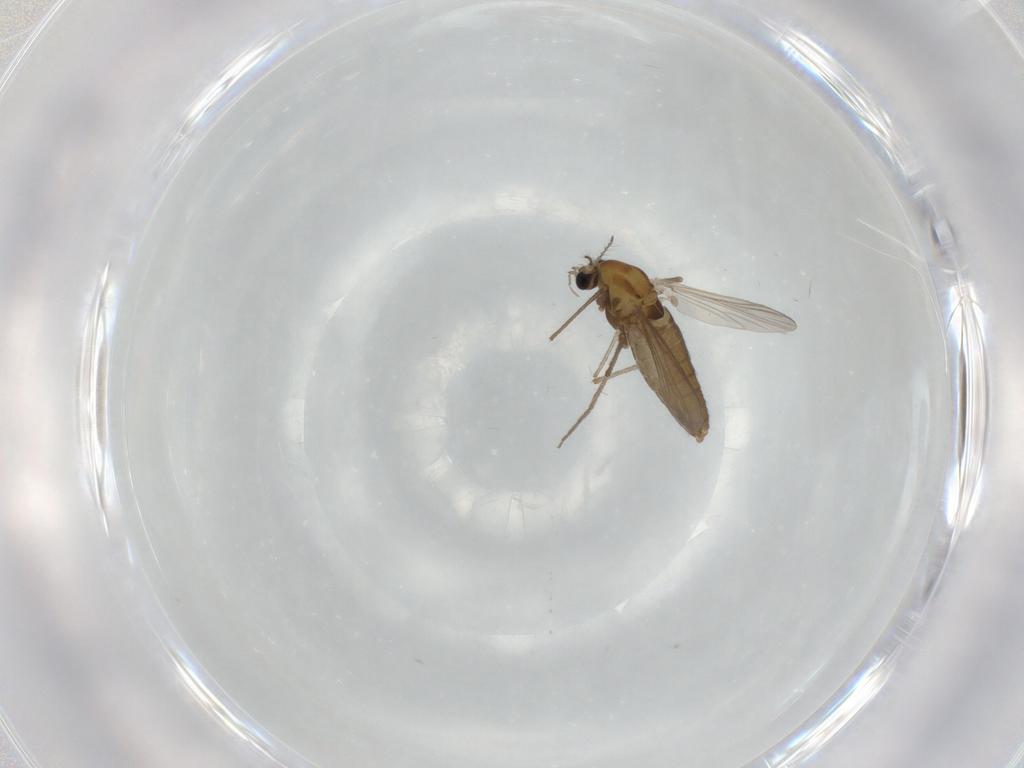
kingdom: Animalia
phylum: Arthropoda
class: Insecta
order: Diptera
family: Chironomidae
